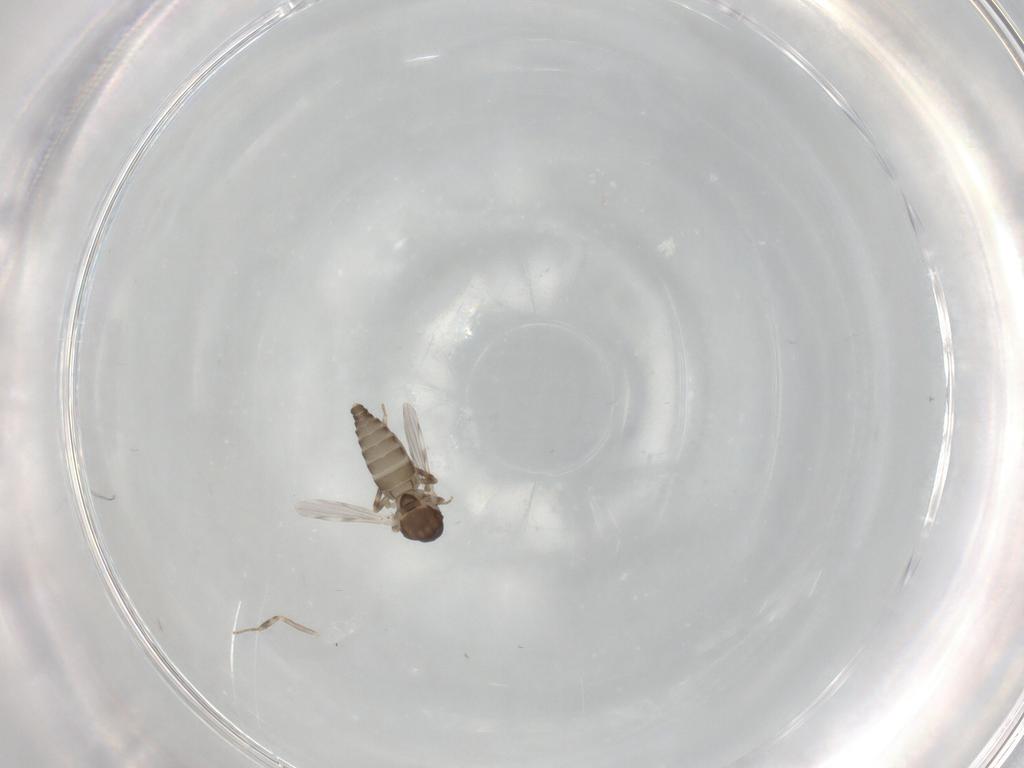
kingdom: Animalia
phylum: Arthropoda
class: Insecta
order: Diptera
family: Ceratopogonidae
